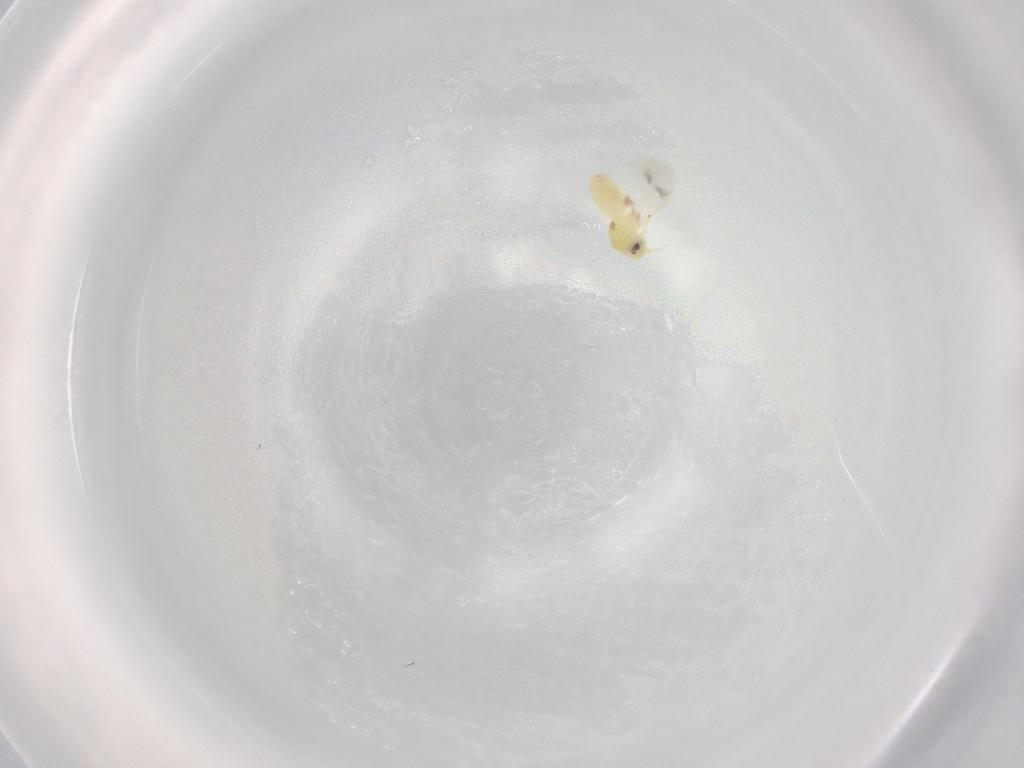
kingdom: Animalia
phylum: Arthropoda
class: Insecta
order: Hemiptera
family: Aleyrodidae
